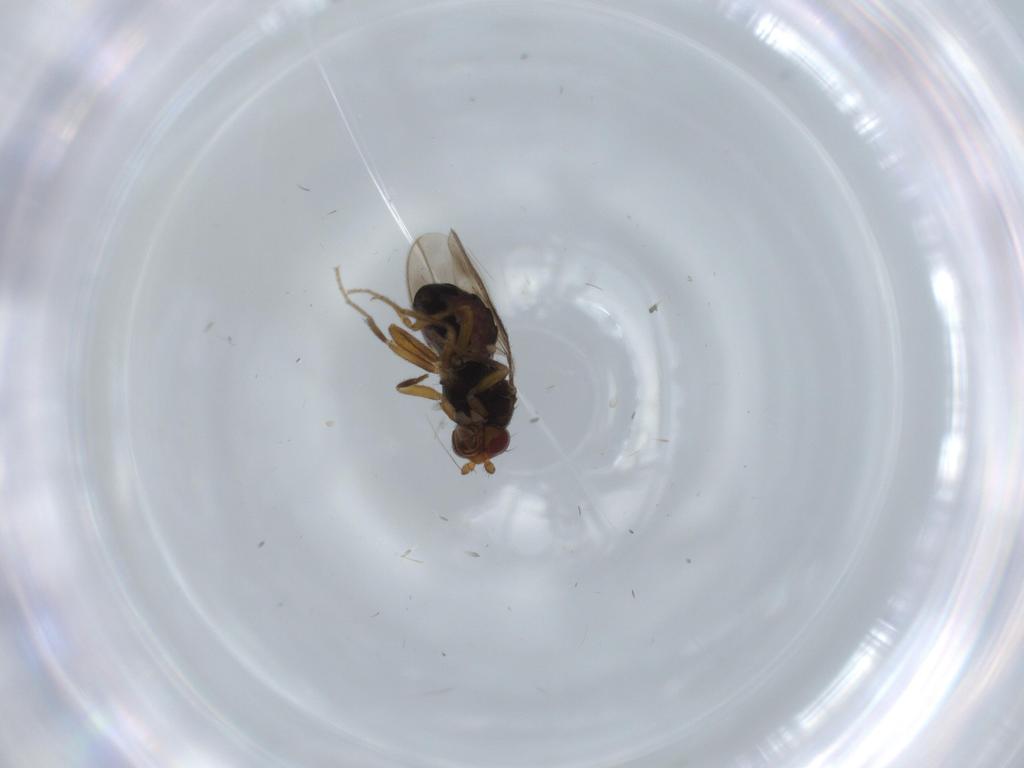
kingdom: Animalia
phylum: Arthropoda
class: Insecta
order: Diptera
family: Sphaeroceridae
